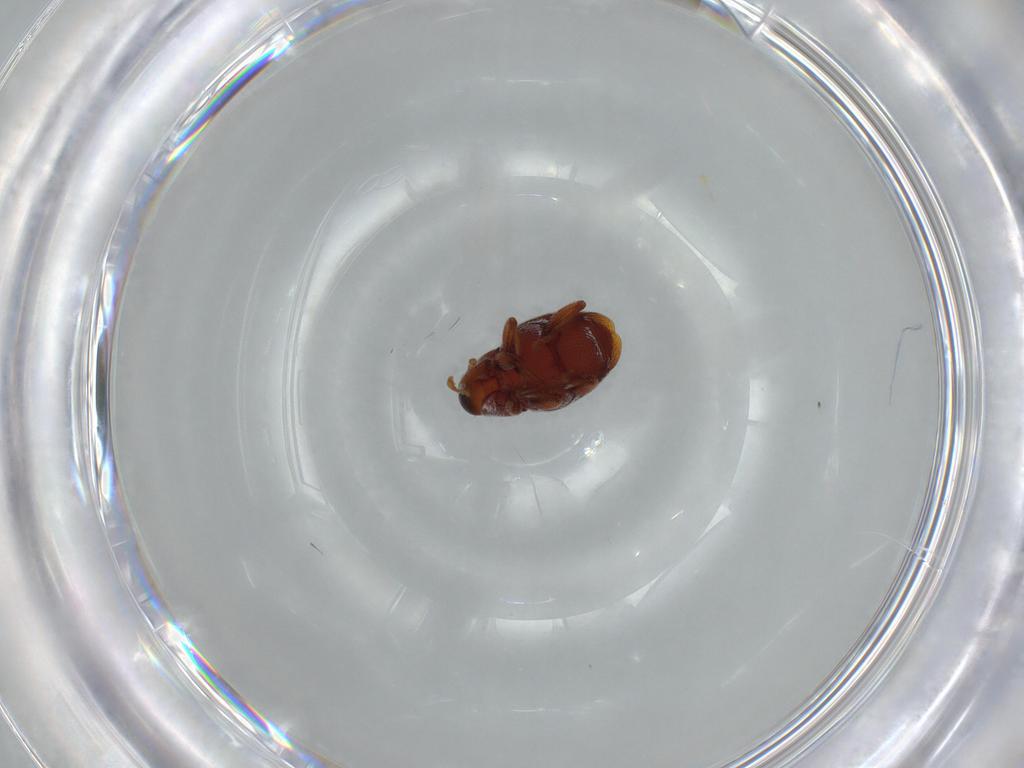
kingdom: Animalia
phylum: Arthropoda
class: Insecta
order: Coleoptera
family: Curculionidae
